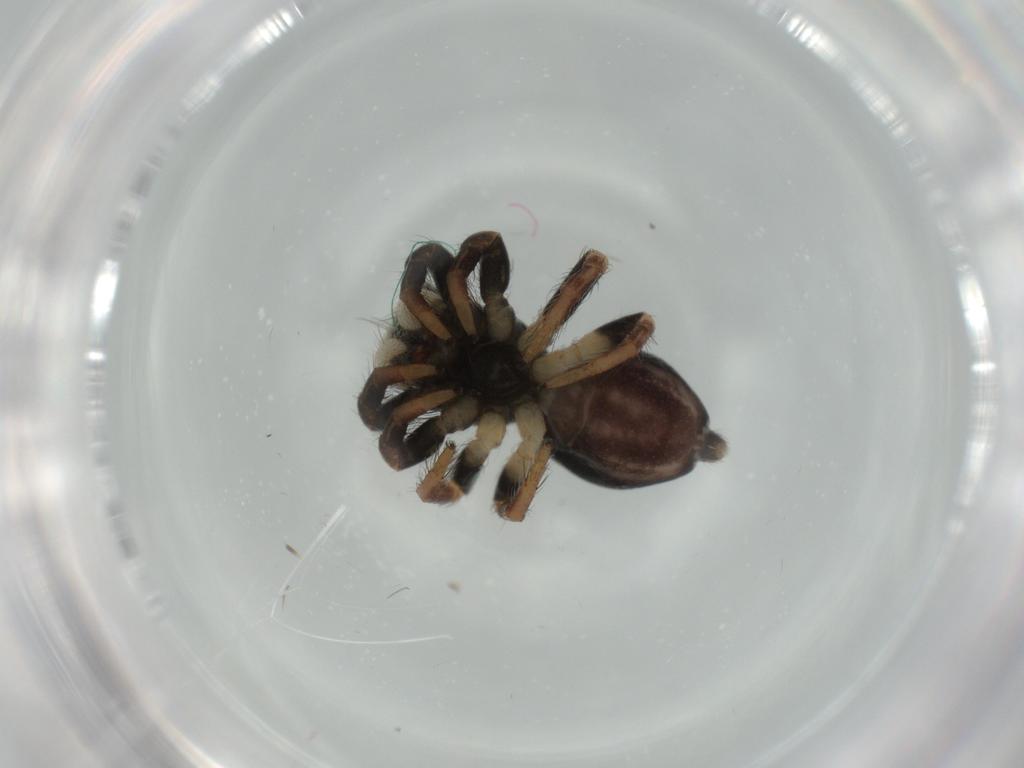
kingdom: Animalia
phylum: Arthropoda
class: Arachnida
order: Araneae
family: Salticidae
